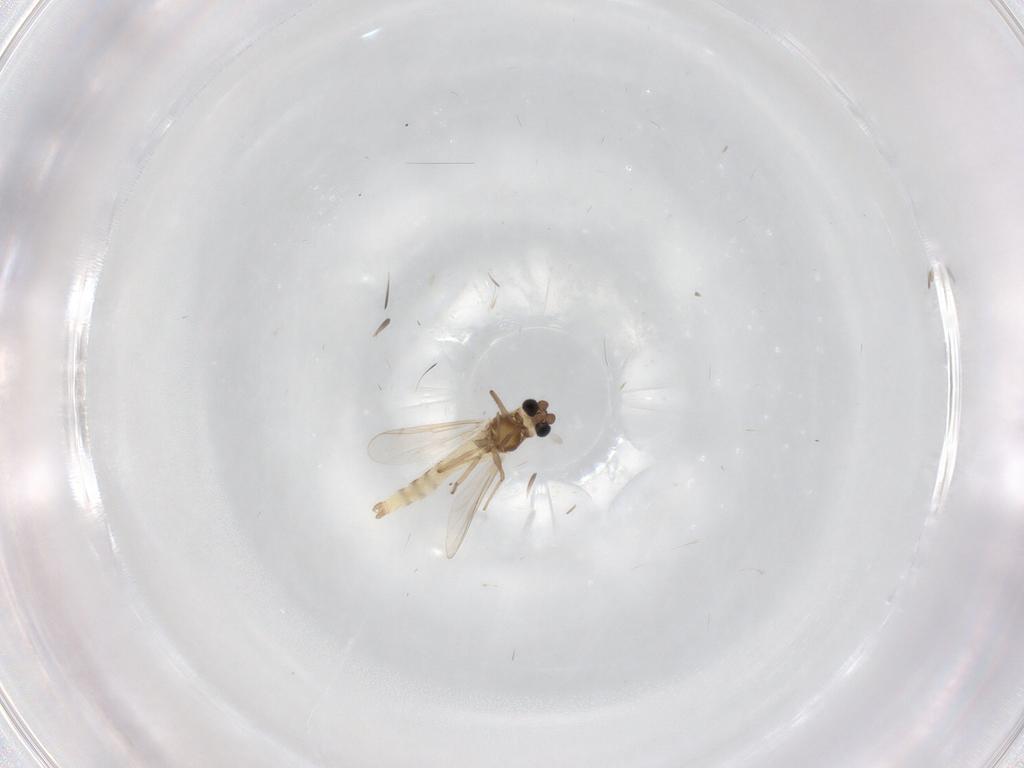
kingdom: Animalia
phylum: Arthropoda
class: Insecta
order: Diptera
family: Chironomidae
